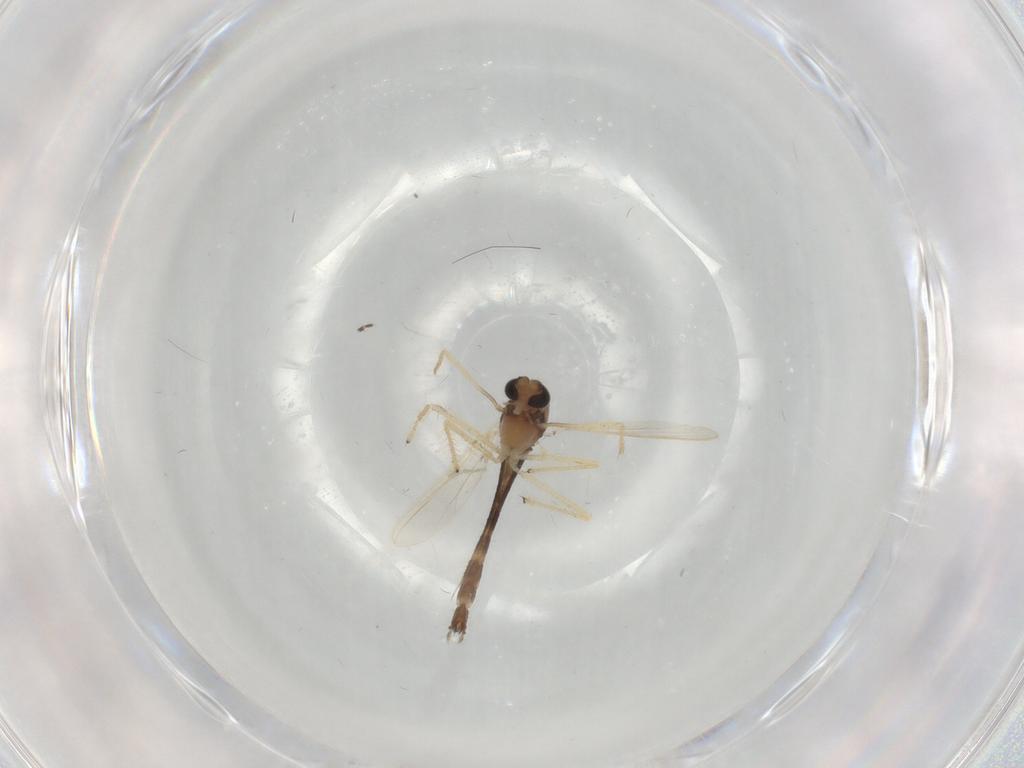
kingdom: Animalia
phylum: Arthropoda
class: Insecta
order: Diptera
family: Chironomidae
